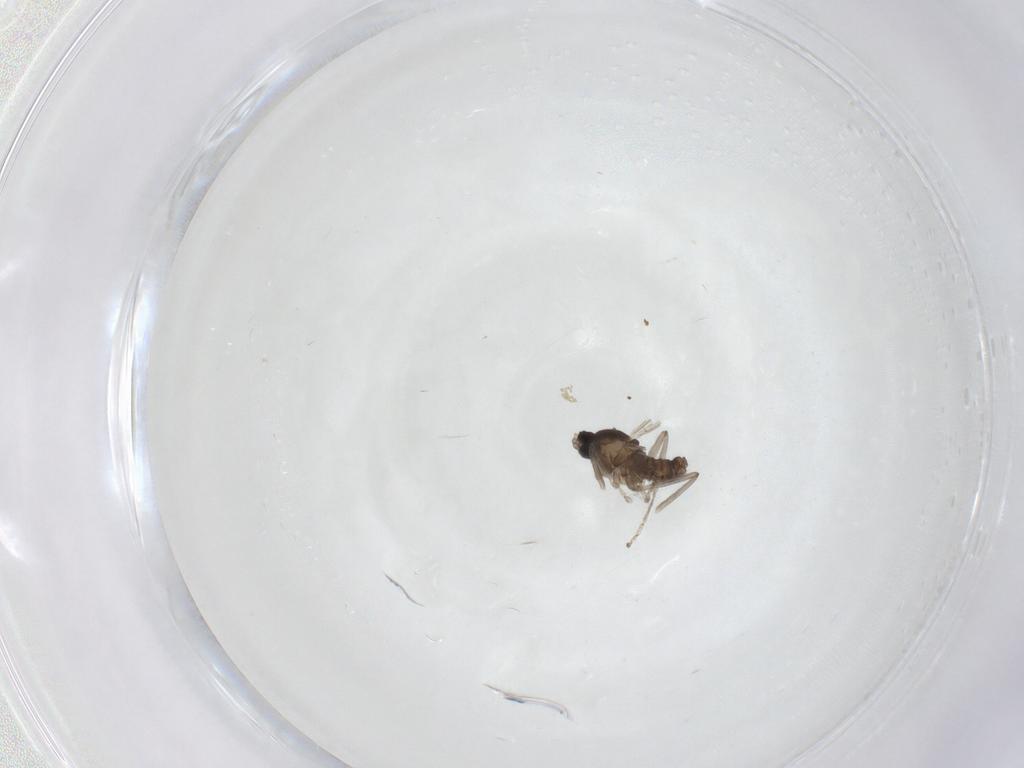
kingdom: Animalia
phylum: Arthropoda
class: Insecta
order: Diptera
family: Cecidomyiidae
